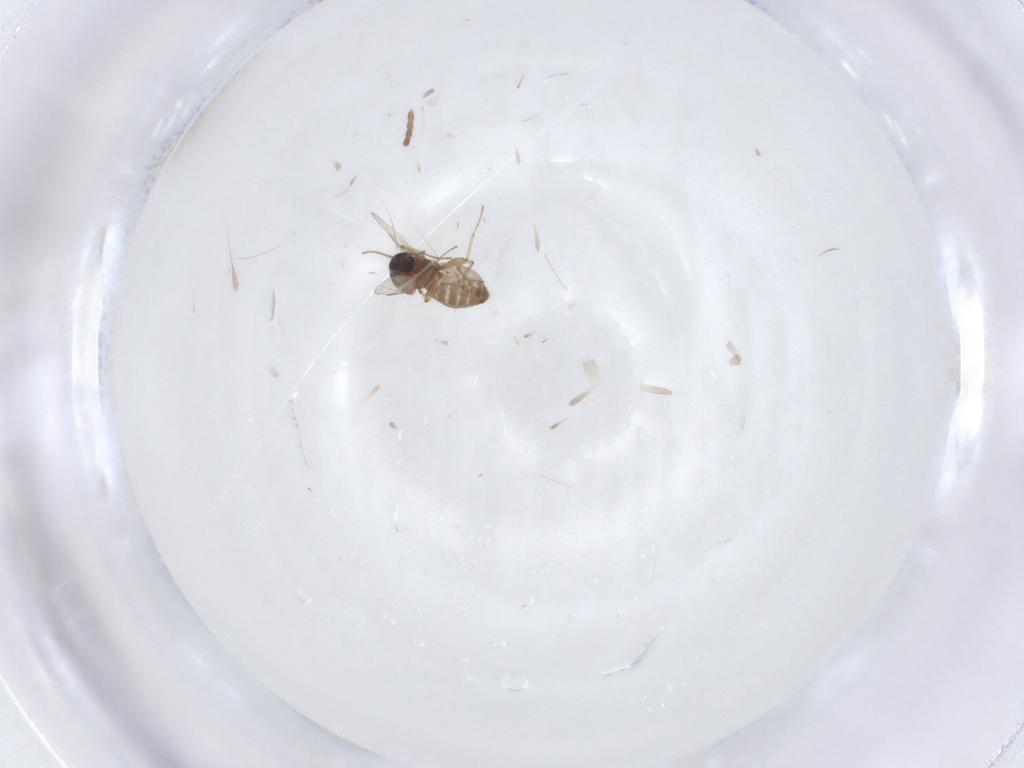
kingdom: Animalia
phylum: Arthropoda
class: Insecta
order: Diptera
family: Cecidomyiidae
